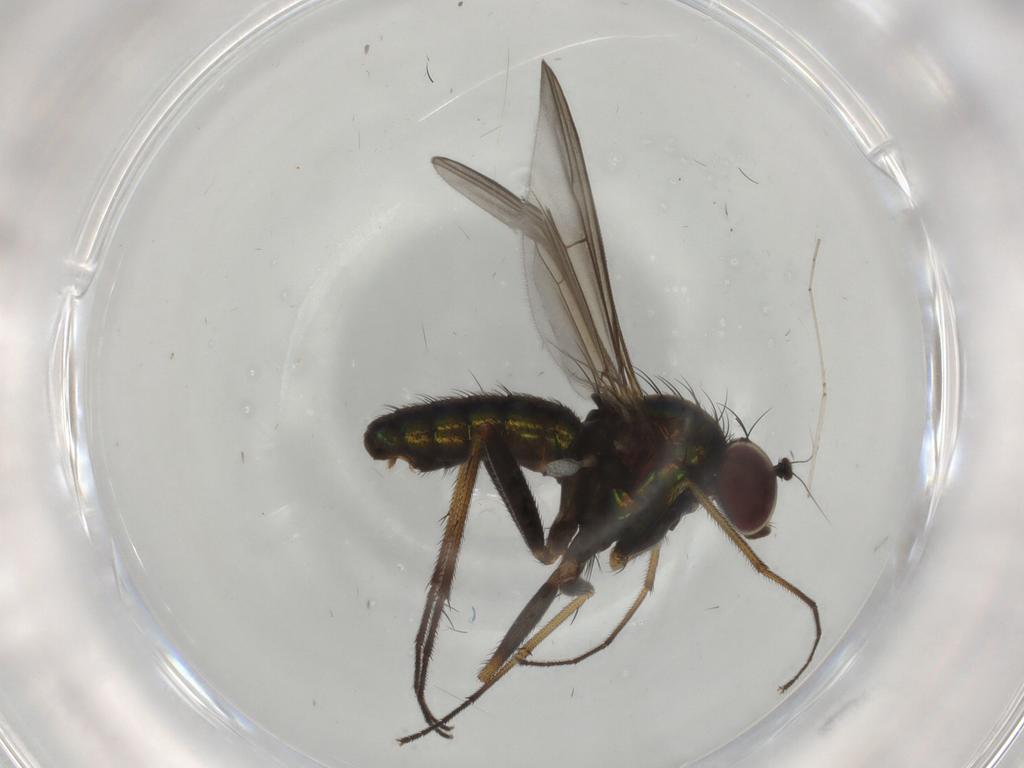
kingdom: Animalia
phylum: Arthropoda
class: Insecta
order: Diptera
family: Dolichopodidae
